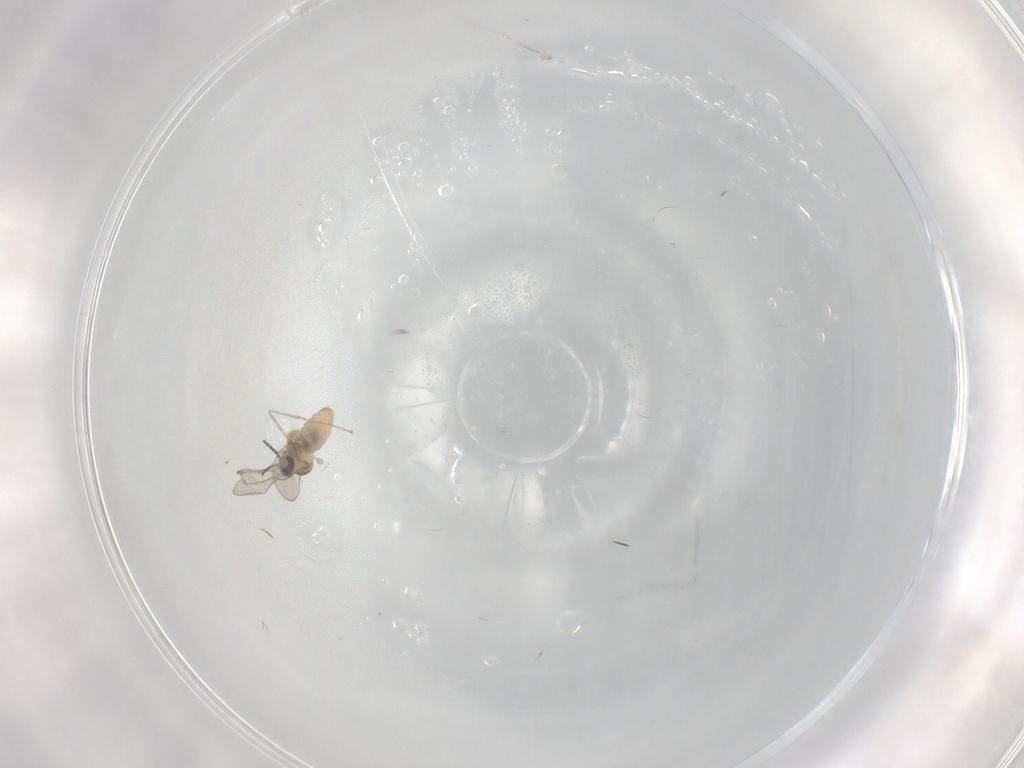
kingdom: Animalia
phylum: Arthropoda
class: Insecta
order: Diptera
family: Cecidomyiidae
